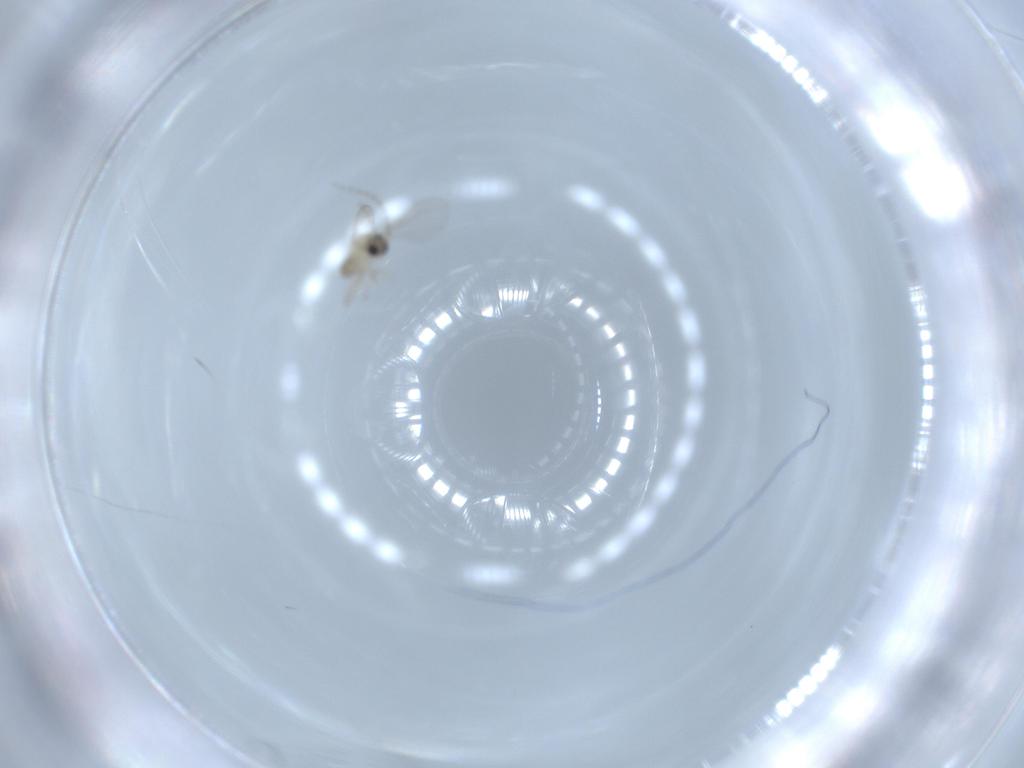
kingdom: Animalia
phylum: Arthropoda
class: Insecta
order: Diptera
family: Cecidomyiidae
